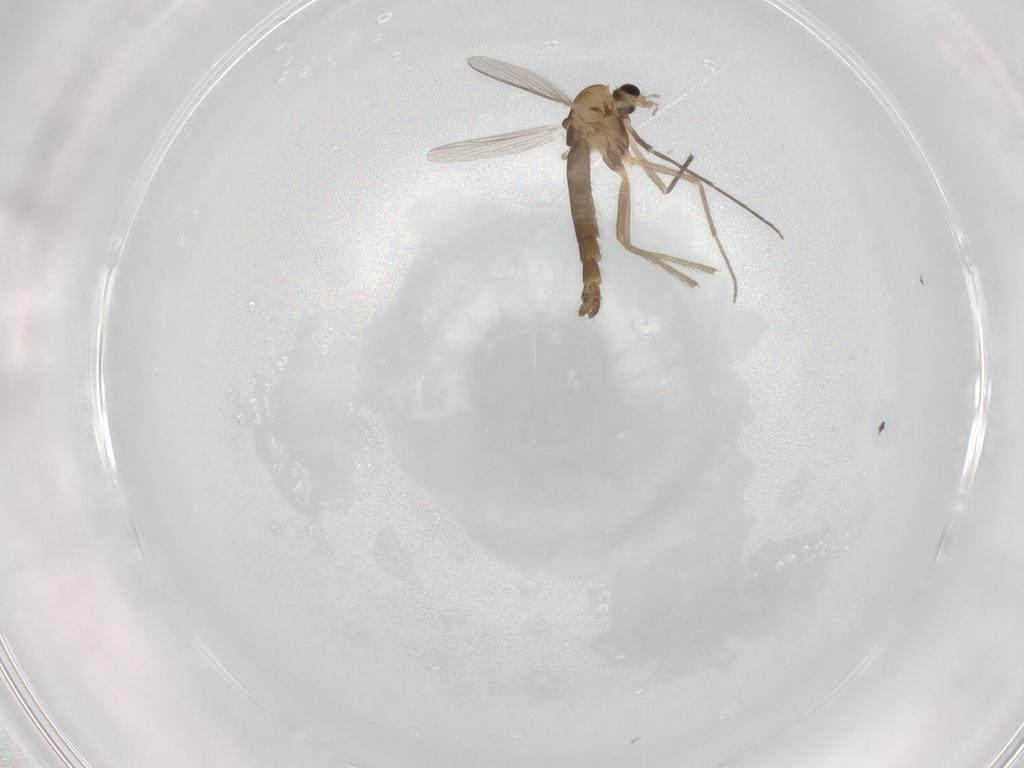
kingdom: Animalia
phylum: Arthropoda
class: Insecta
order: Diptera
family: Chironomidae
